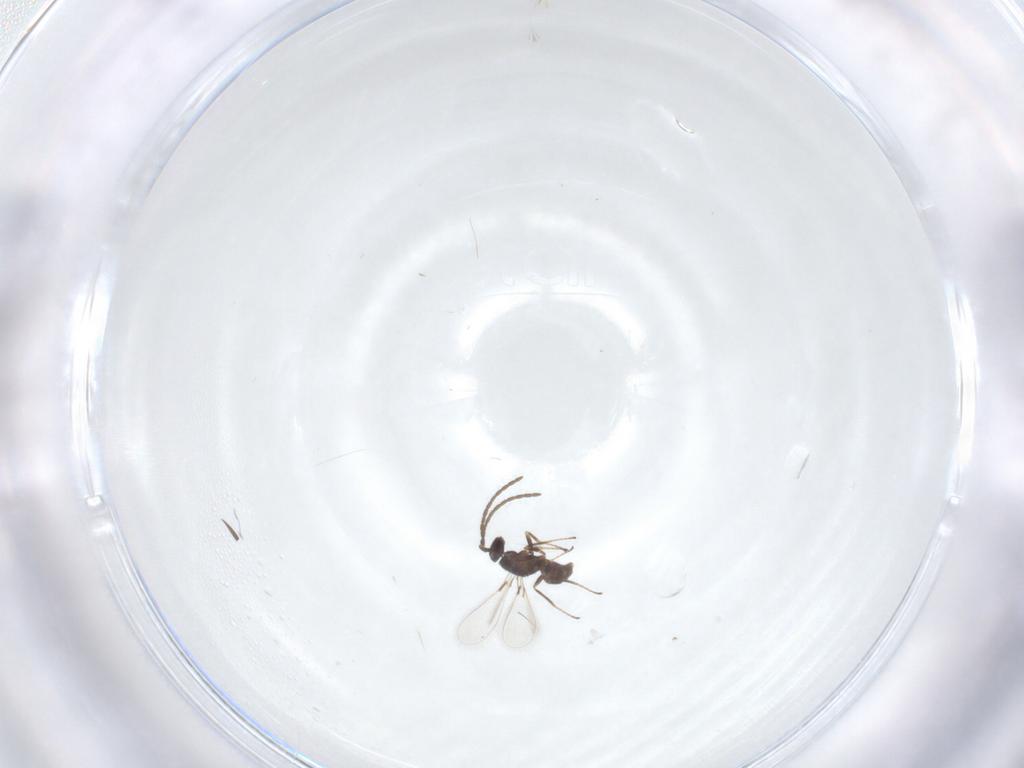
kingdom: Animalia
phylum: Arthropoda
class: Insecta
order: Hymenoptera
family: Mymaridae
